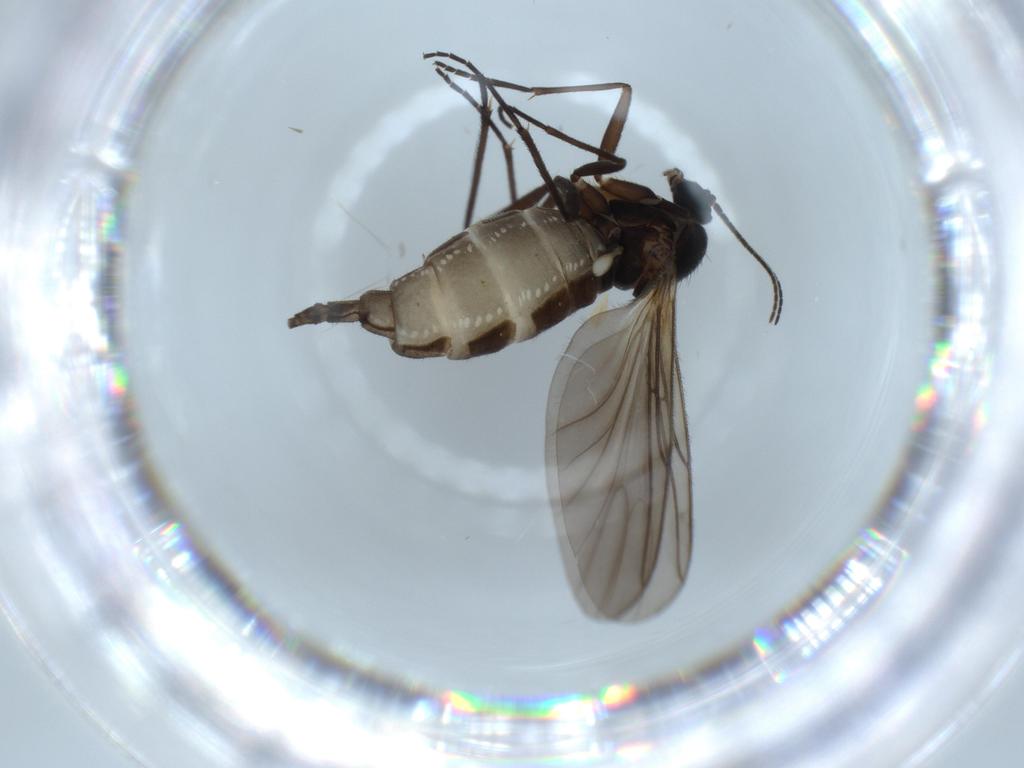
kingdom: Animalia
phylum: Arthropoda
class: Insecta
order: Diptera
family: Sciaridae
